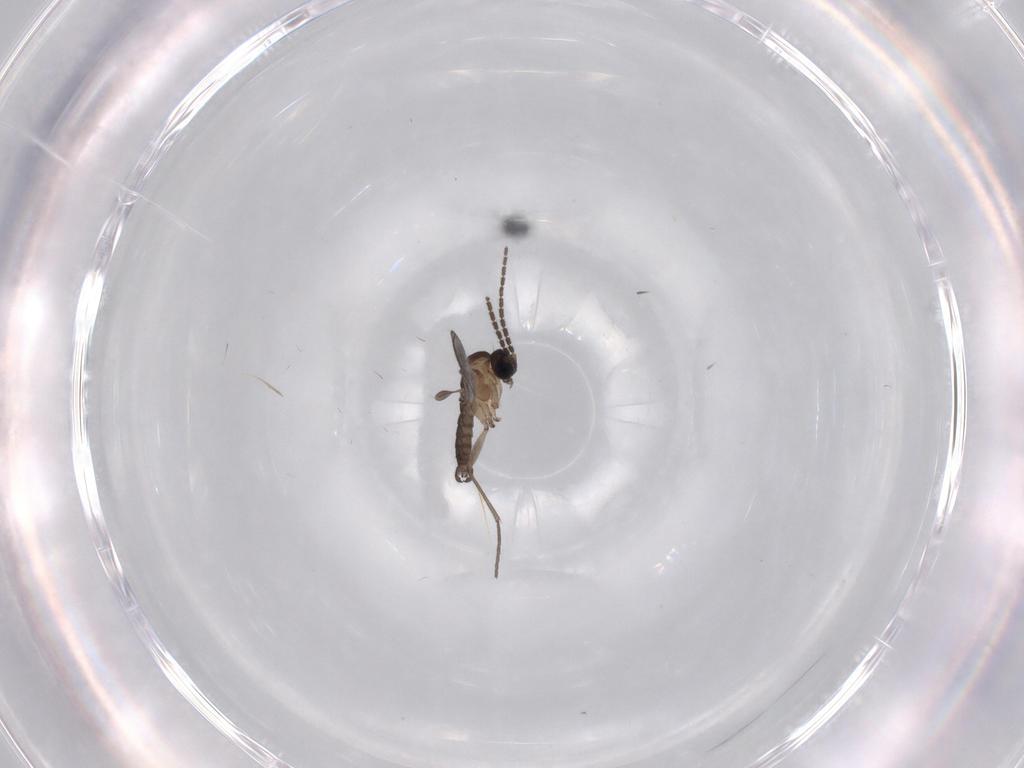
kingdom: Animalia
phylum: Arthropoda
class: Insecta
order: Diptera
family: Sciaridae
